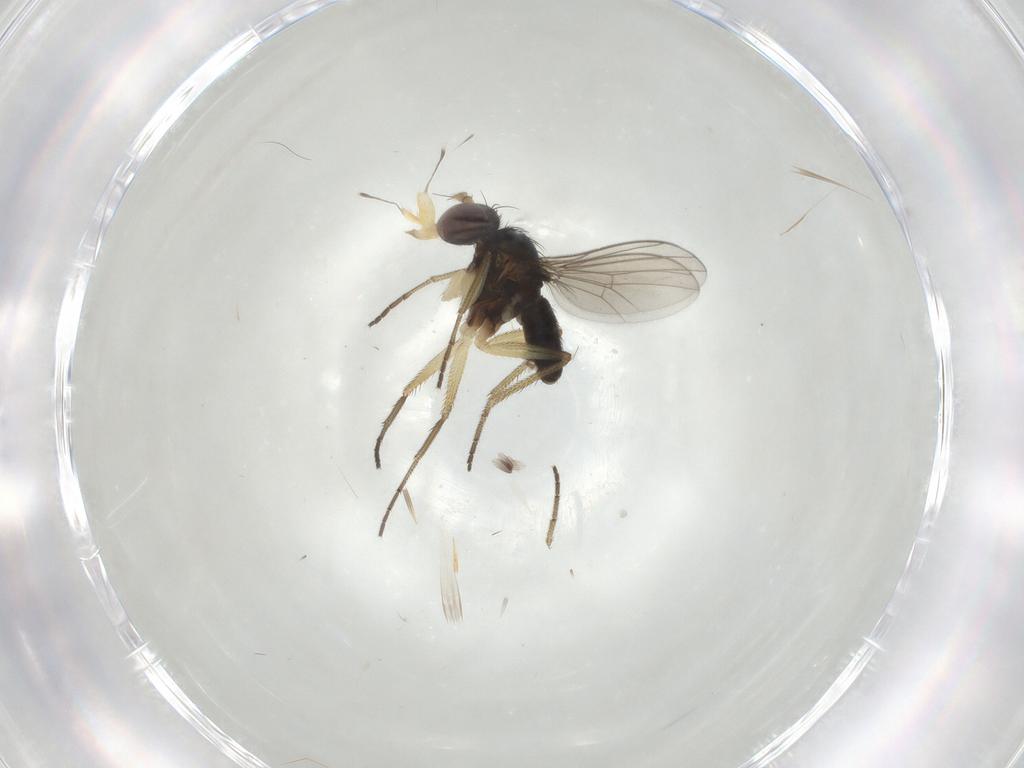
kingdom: Animalia
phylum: Arthropoda
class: Insecta
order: Diptera
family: Dolichopodidae
